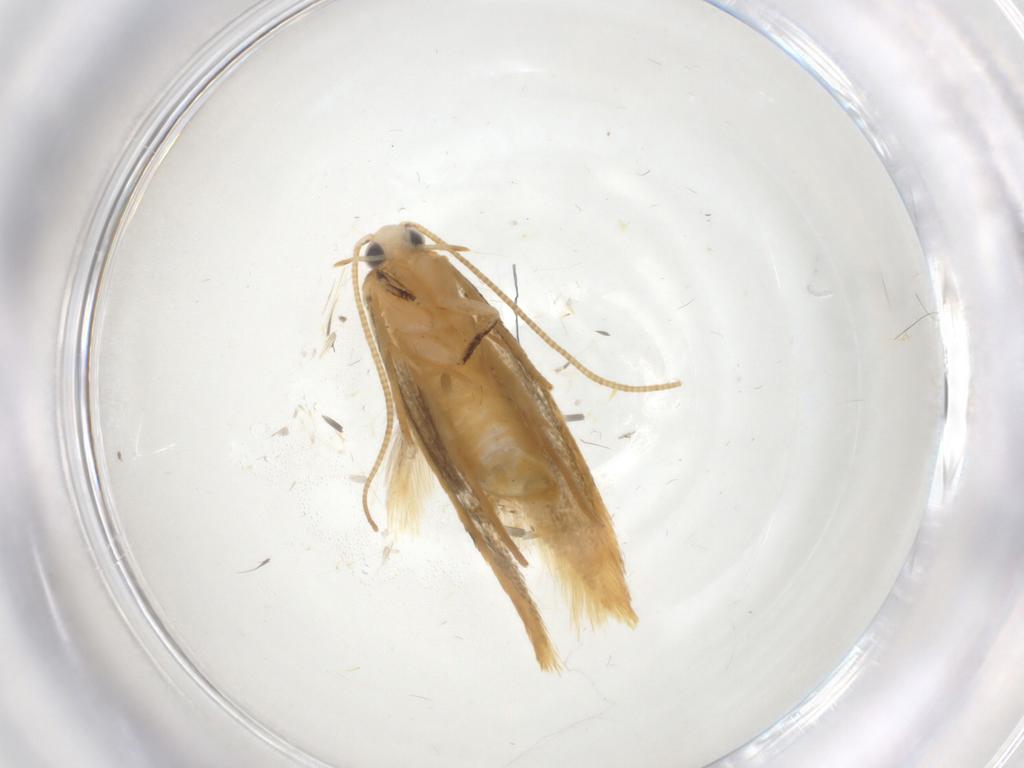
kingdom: Animalia
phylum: Arthropoda
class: Insecta
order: Lepidoptera
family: Tineidae
